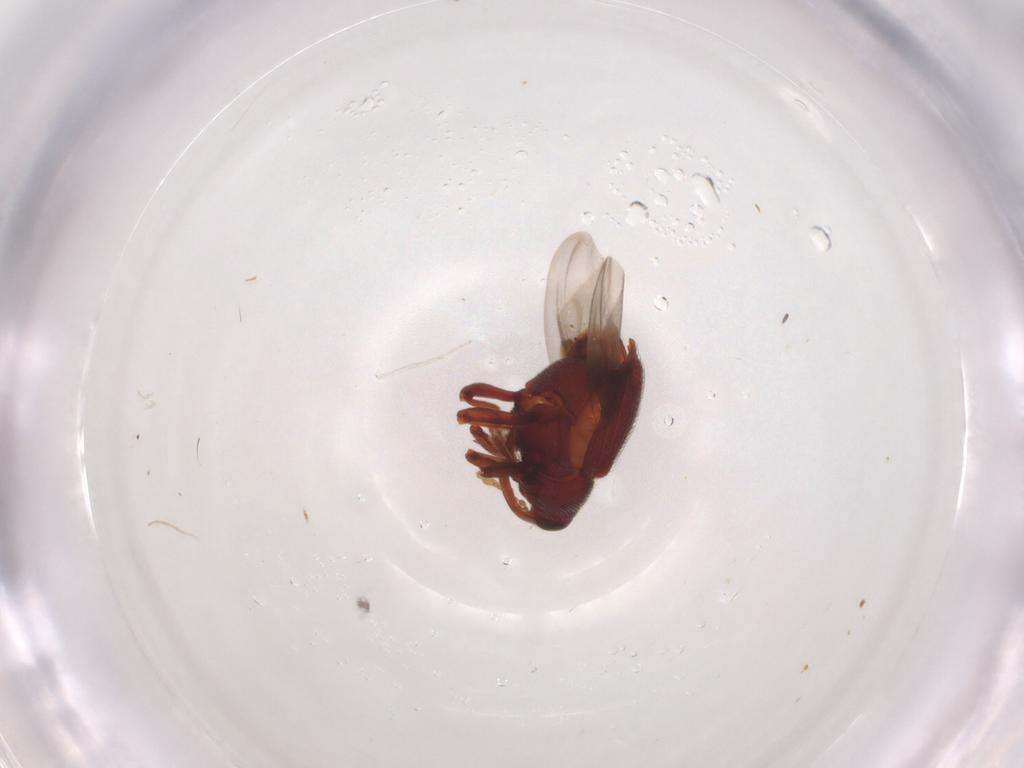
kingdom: Animalia
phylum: Arthropoda
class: Insecta
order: Coleoptera
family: Curculionidae
